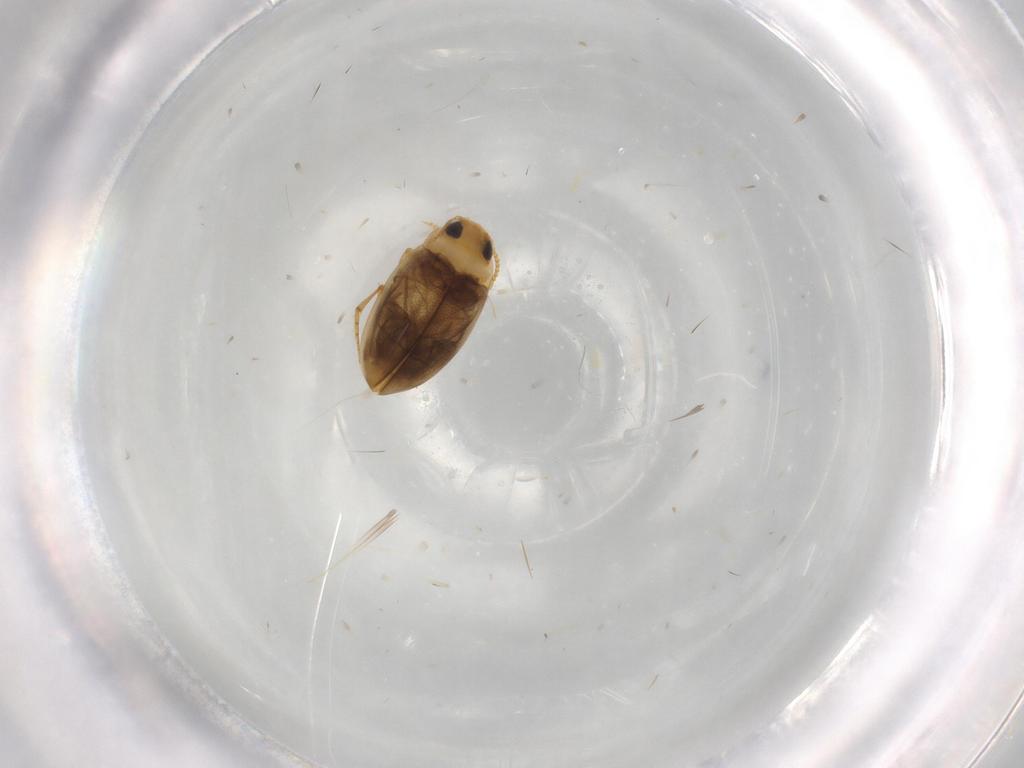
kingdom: Animalia
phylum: Arthropoda
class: Insecta
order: Coleoptera
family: Dytiscidae
